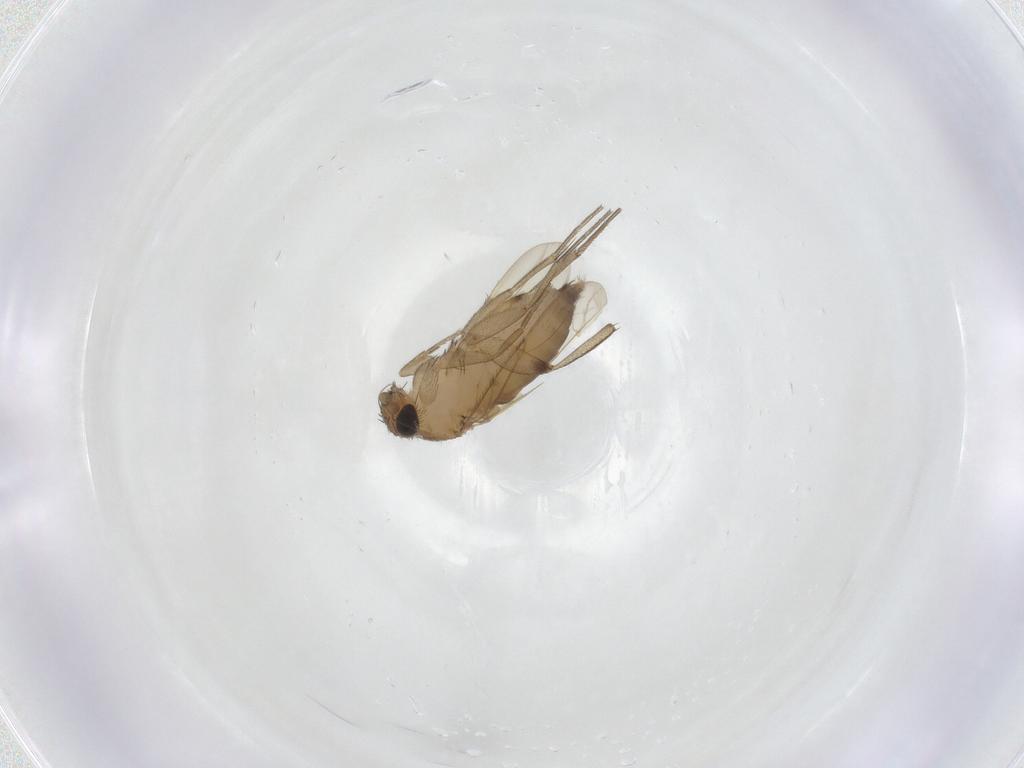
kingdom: Animalia
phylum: Arthropoda
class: Insecta
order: Diptera
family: Phoridae
